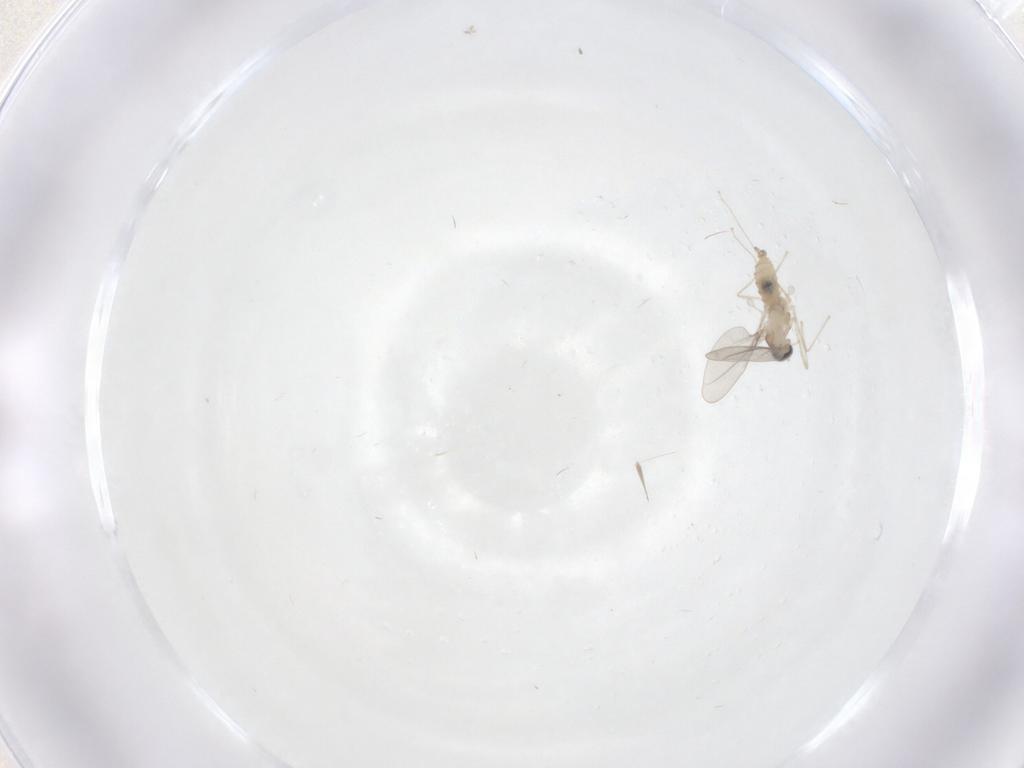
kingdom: Animalia
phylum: Arthropoda
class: Insecta
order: Diptera
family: Cecidomyiidae
